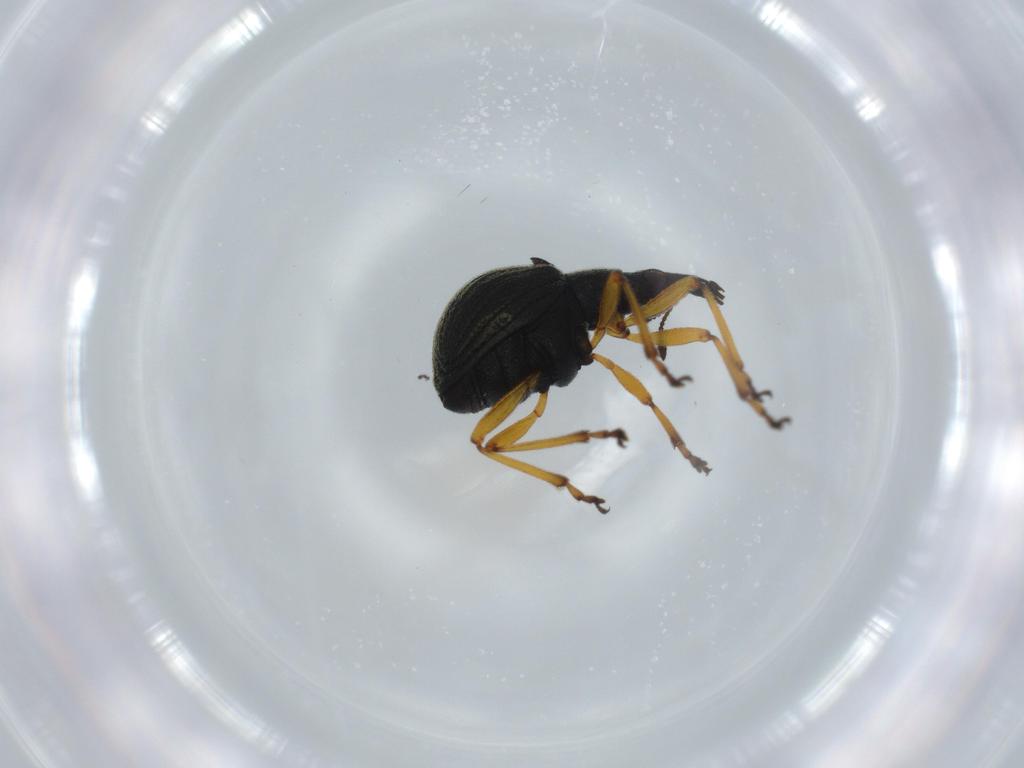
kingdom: Animalia
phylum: Arthropoda
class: Insecta
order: Coleoptera
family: Brentidae
